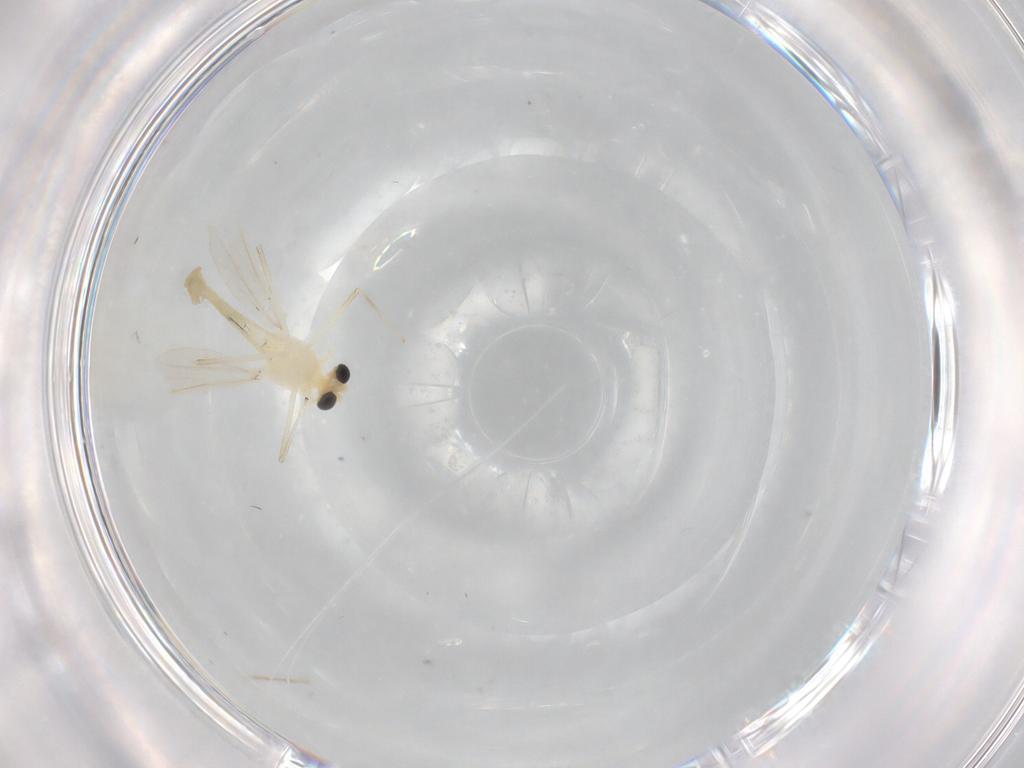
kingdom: Animalia
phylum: Arthropoda
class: Insecta
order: Diptera
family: Chironomidae
